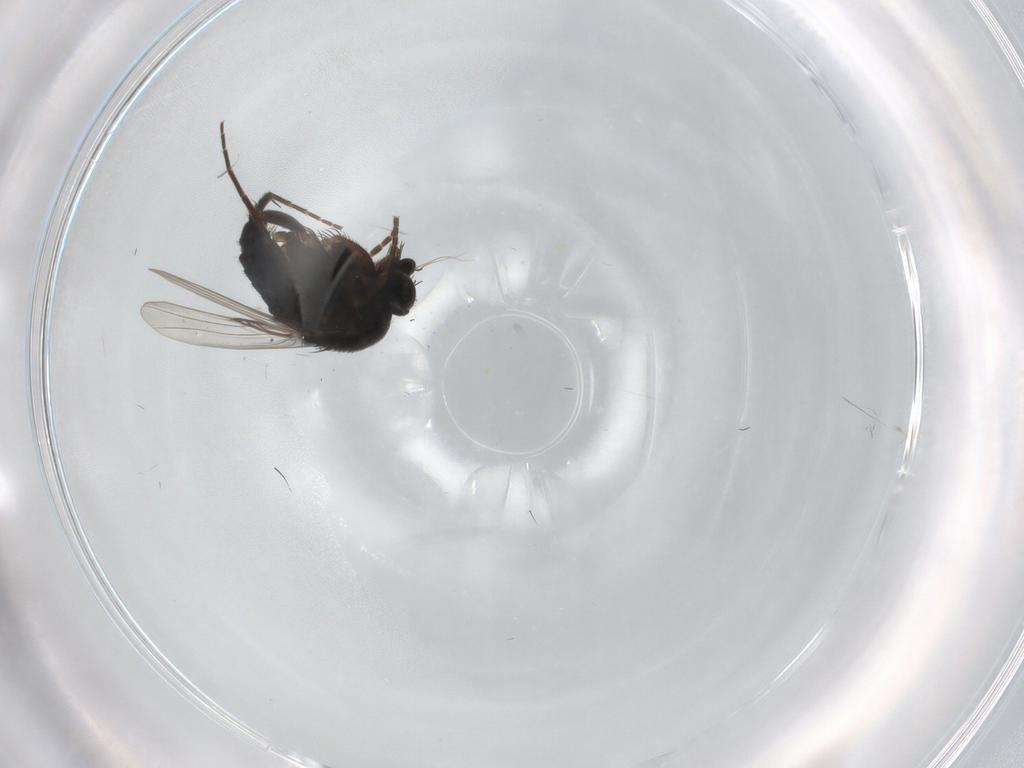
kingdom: Animalia
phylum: Arthropoda
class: Insecta
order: Diptera
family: Phoridae
